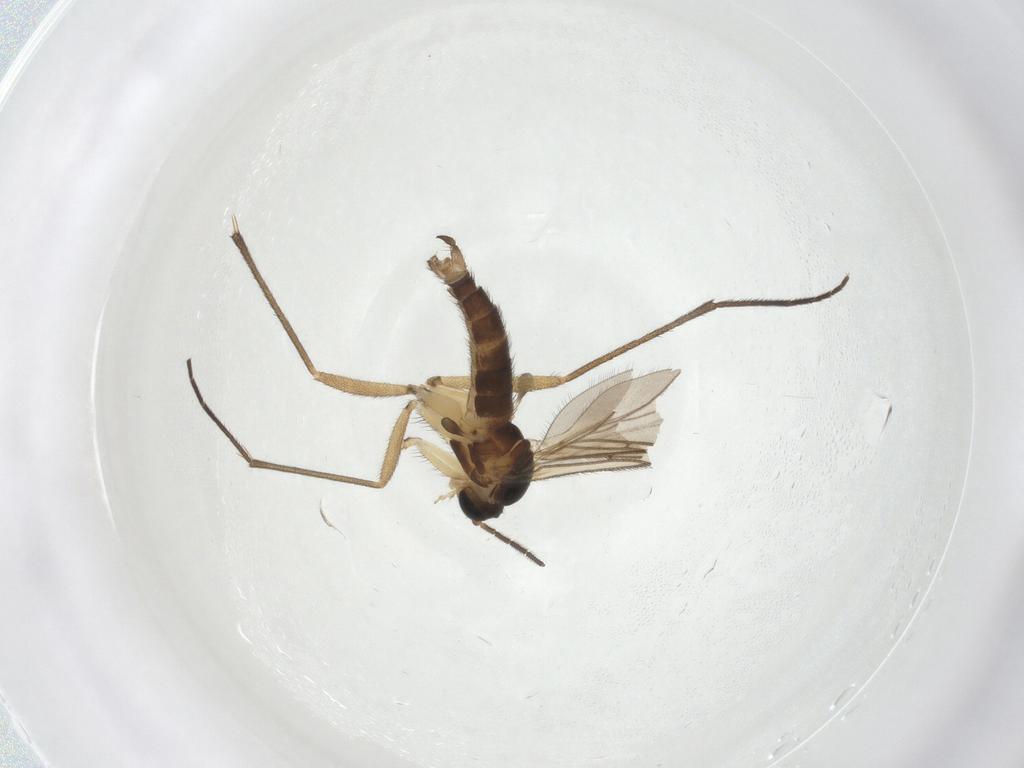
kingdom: Animalia
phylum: Arthropoda
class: Insecta
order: Diptera
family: Sciaridae
